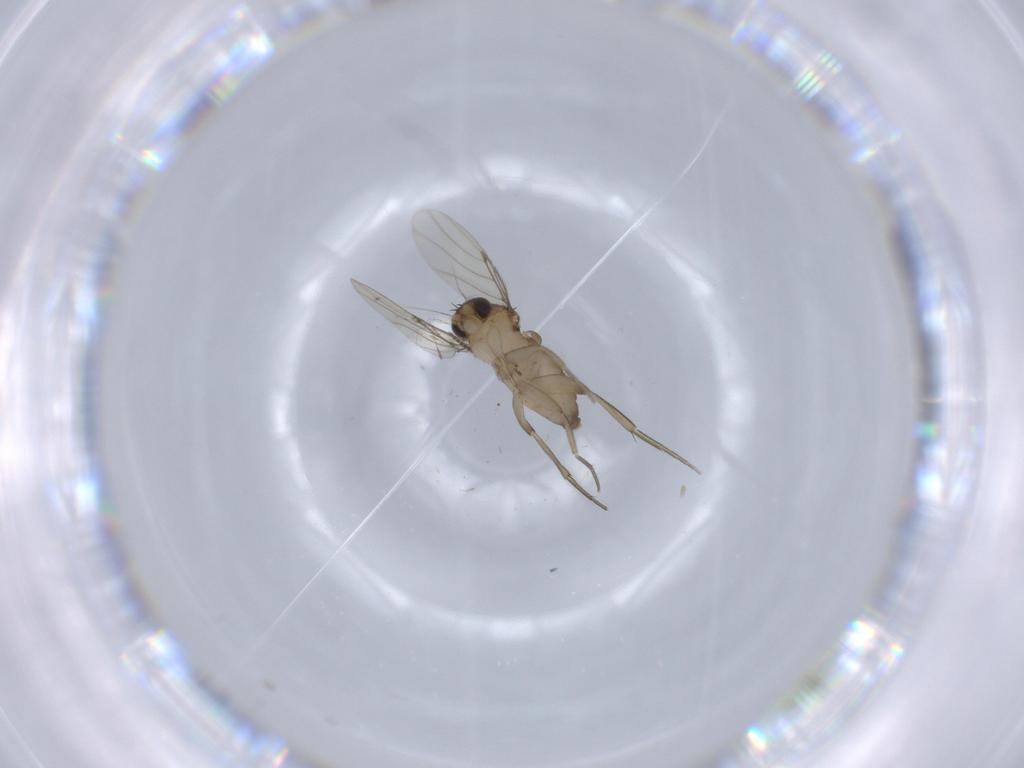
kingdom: Animalia
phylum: Arthropoda
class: Insecta
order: Diptera
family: Phoridae
